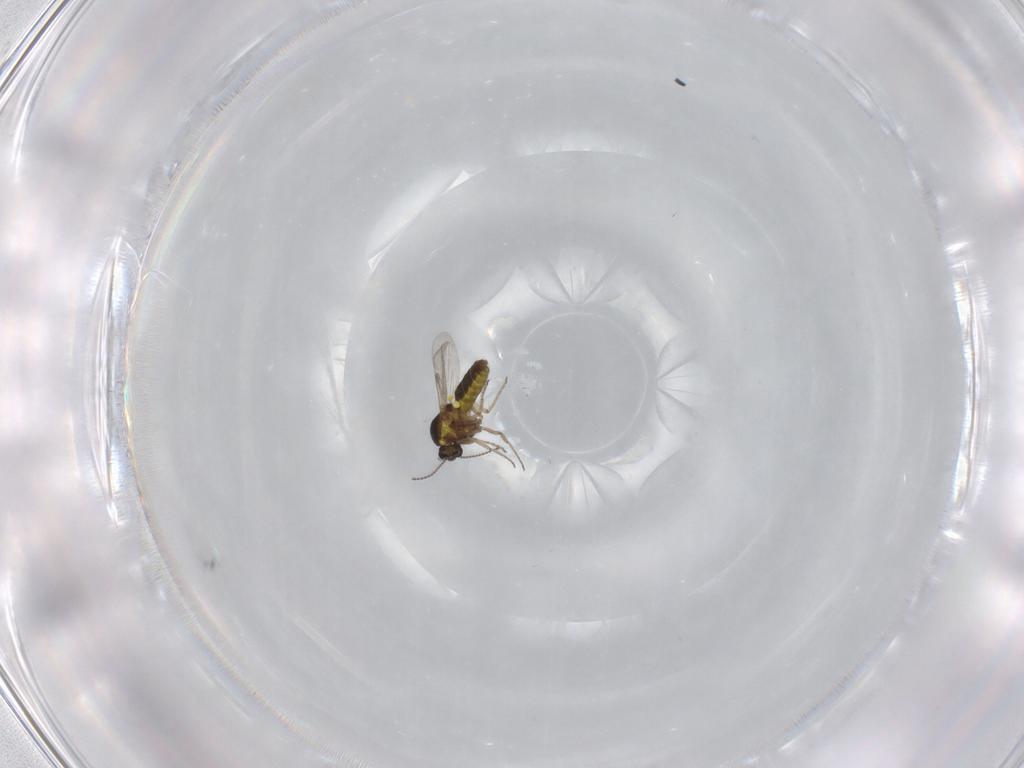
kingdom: Animalia
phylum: Arthropoda
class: Insecta
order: Diptera
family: Ceratopogonidae
